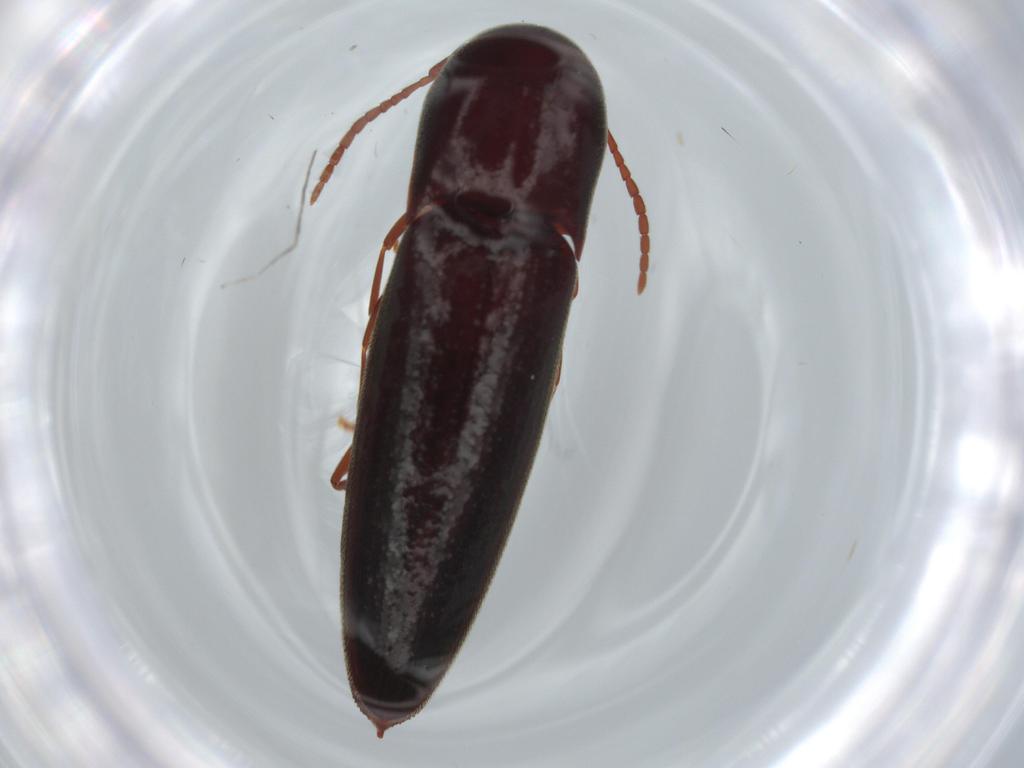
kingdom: Animalia
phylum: Arthropoda
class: Insecta
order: Coleoptera
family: Eucnemidae
